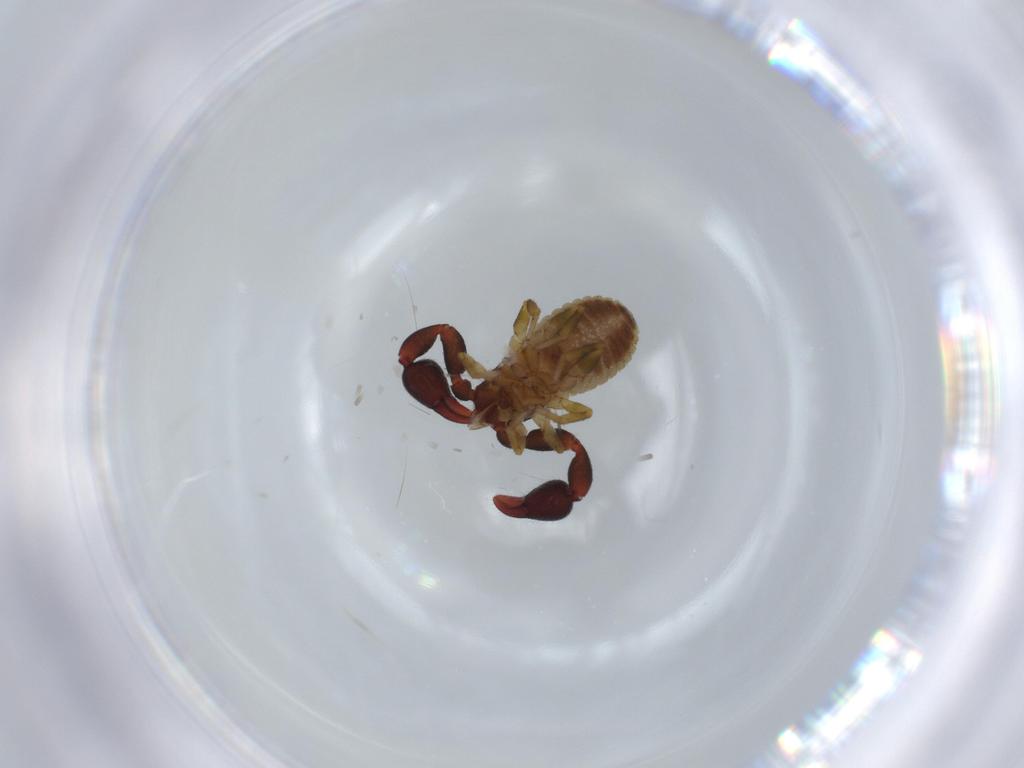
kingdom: Animalia
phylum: Arthropoda
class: Arachnida
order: Pseudoscorpiones
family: Chernetidae
